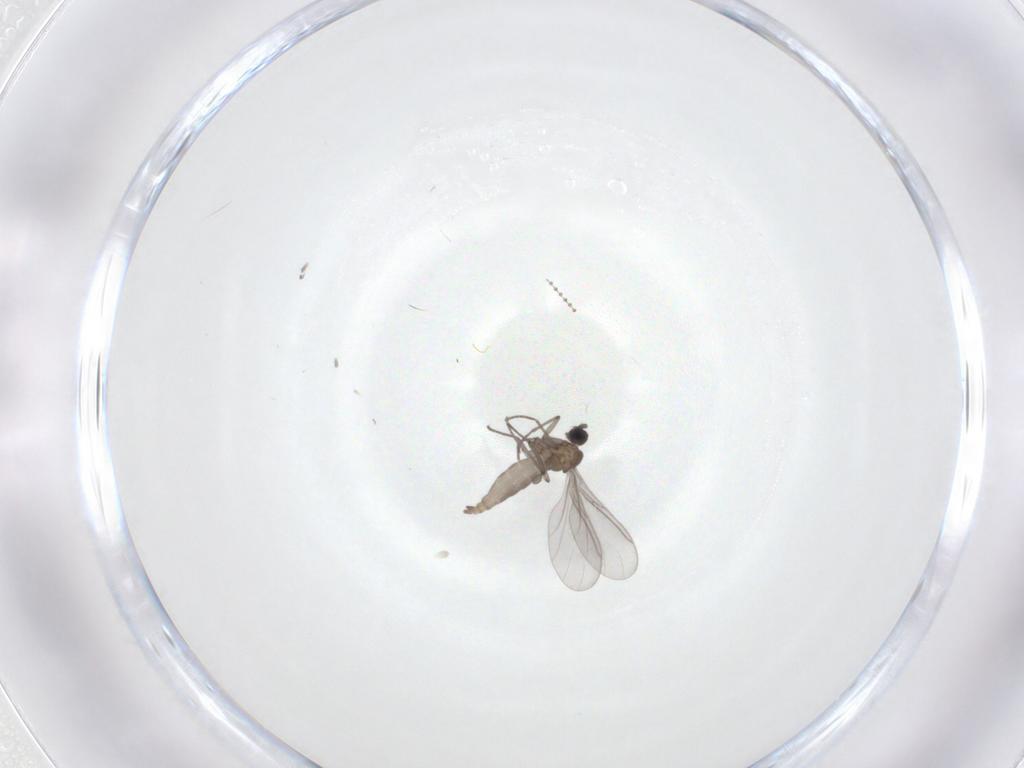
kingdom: Animalia
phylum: Arthropoda
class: Insecta
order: Diptera
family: Sciaridae
